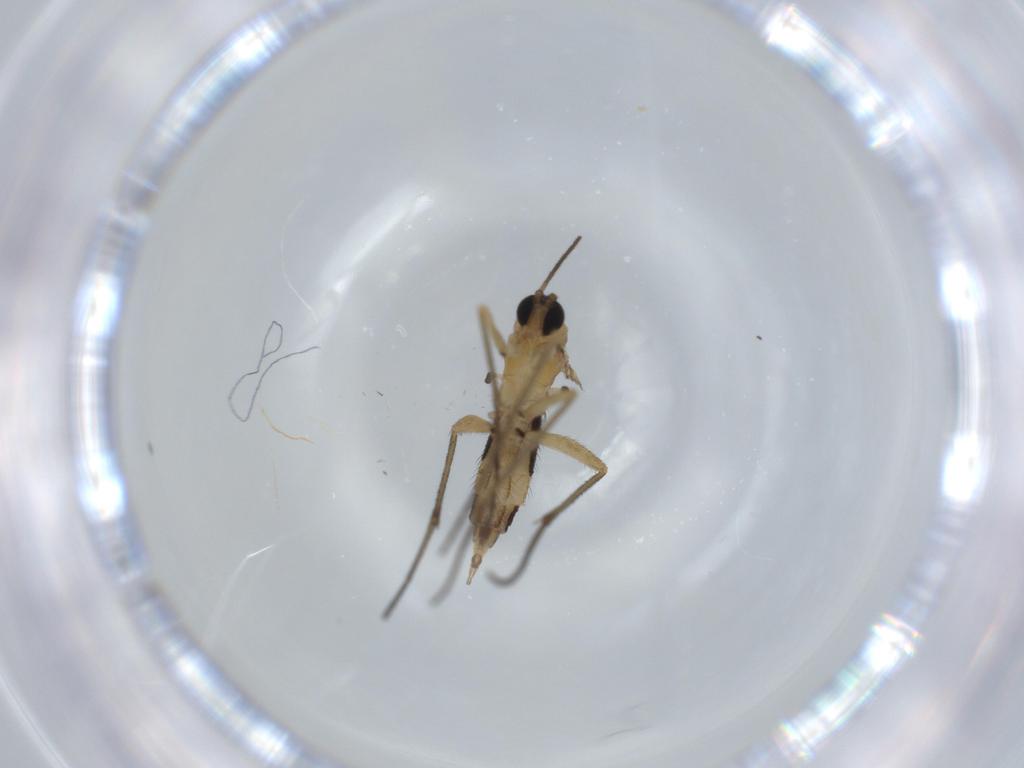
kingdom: Animalia
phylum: Arthropoda
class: Insecta
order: Diptera
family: Sciaridae
